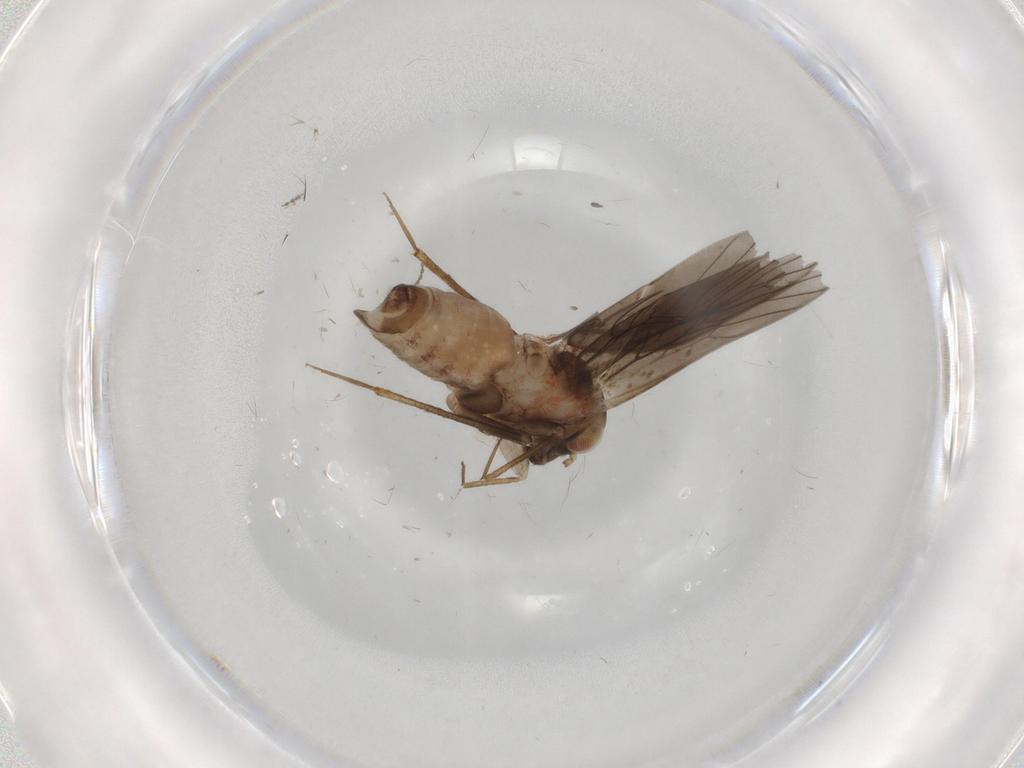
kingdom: Animalia
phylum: Arthropoda
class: Insecta
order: Psocodea
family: Lepidopsocidae
